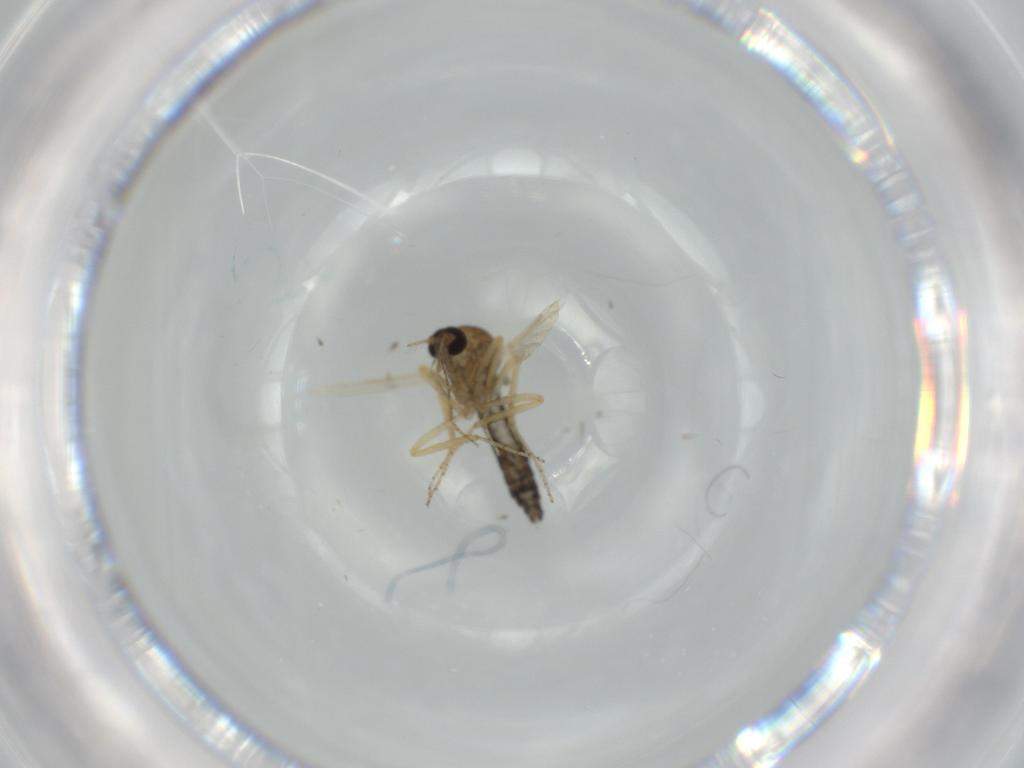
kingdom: Animalia
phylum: Arthropoda
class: Insecta
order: Diptera
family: Ceratopogonidae
